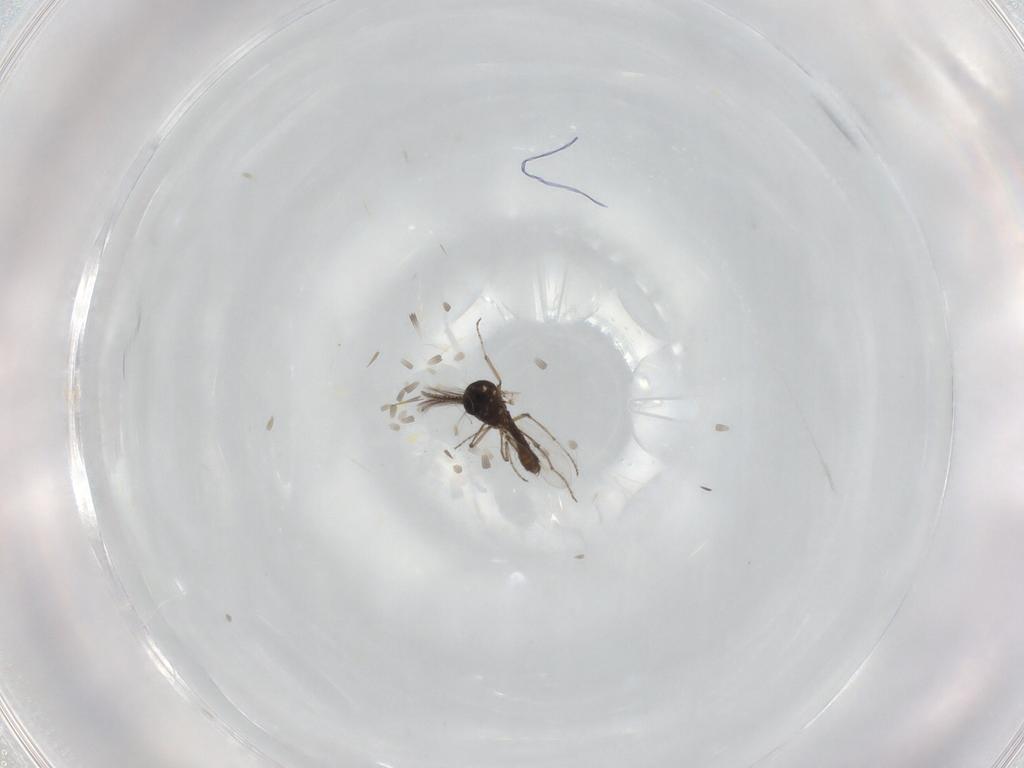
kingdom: Animalia
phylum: Arthropoda
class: Insecta
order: Diptera
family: Ceratopogonidae
